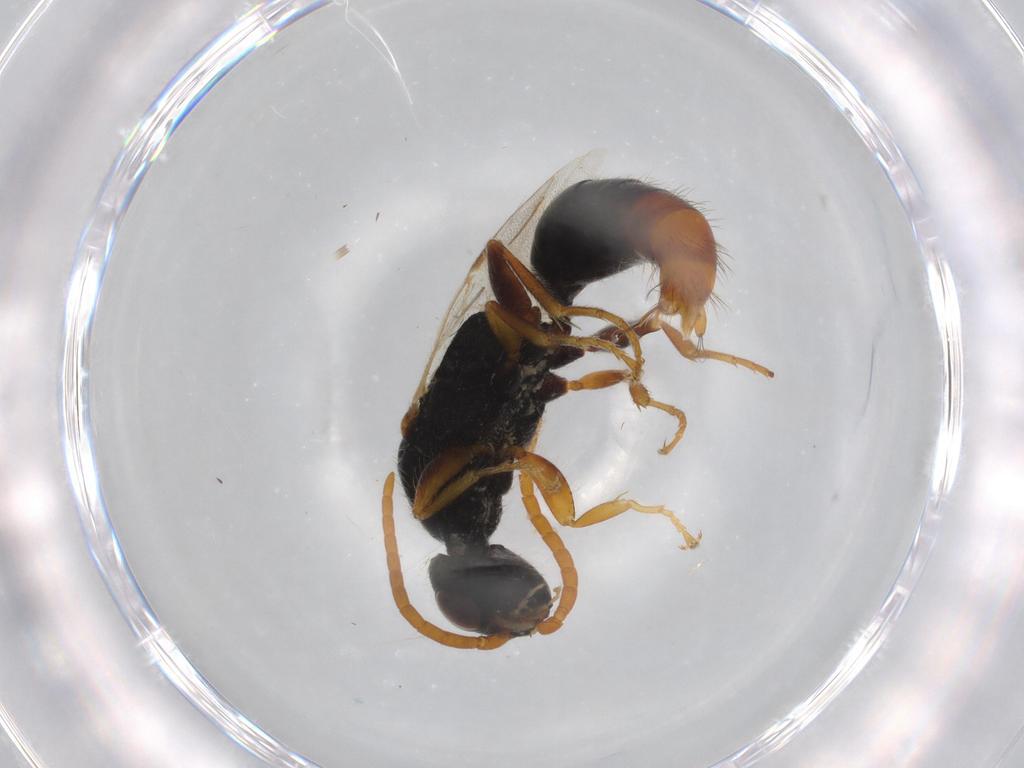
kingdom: Animalia
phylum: Arthropoda
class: Insecta
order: Hymenoptera
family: Bethylidae
